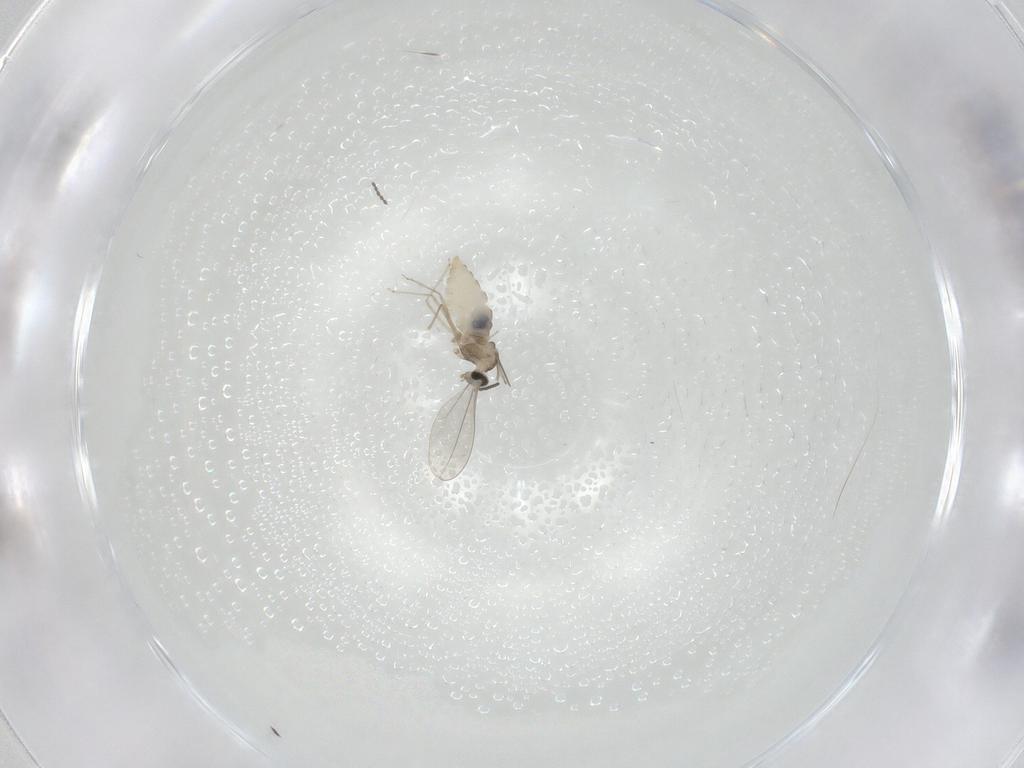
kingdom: Animalia
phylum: Arthropoda
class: Insecta
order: Diptera
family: Cecidomyiidae
